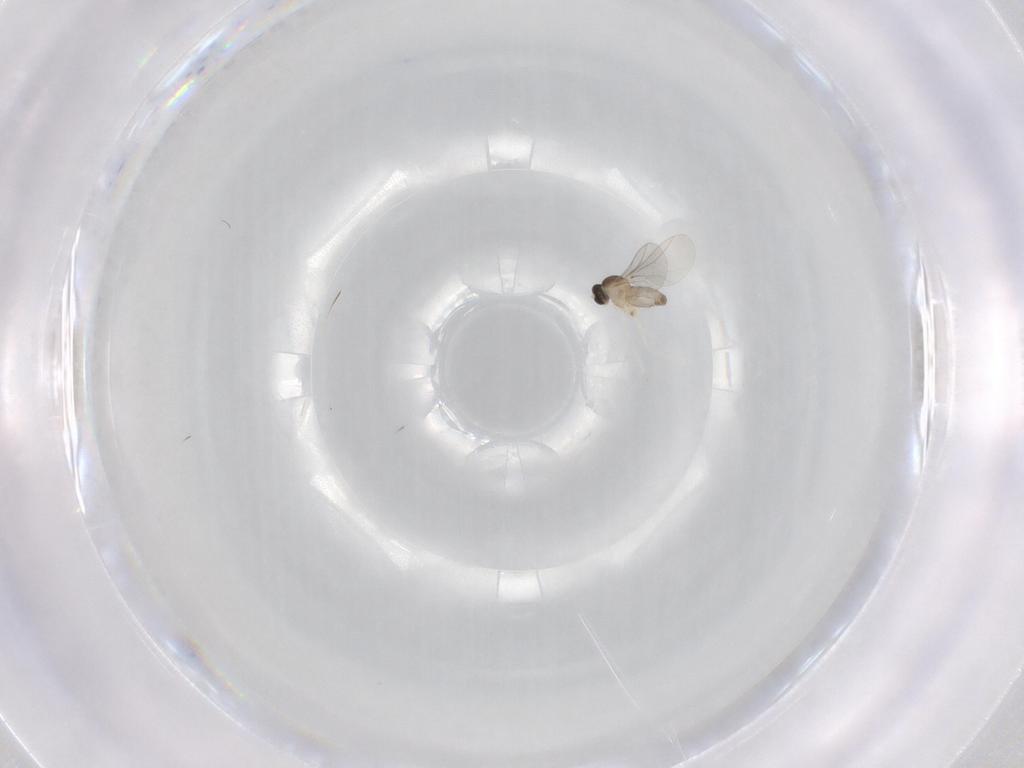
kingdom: Animalia
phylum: Arthropoda
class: Insecta
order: Diptera
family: Cecidomyiidae
